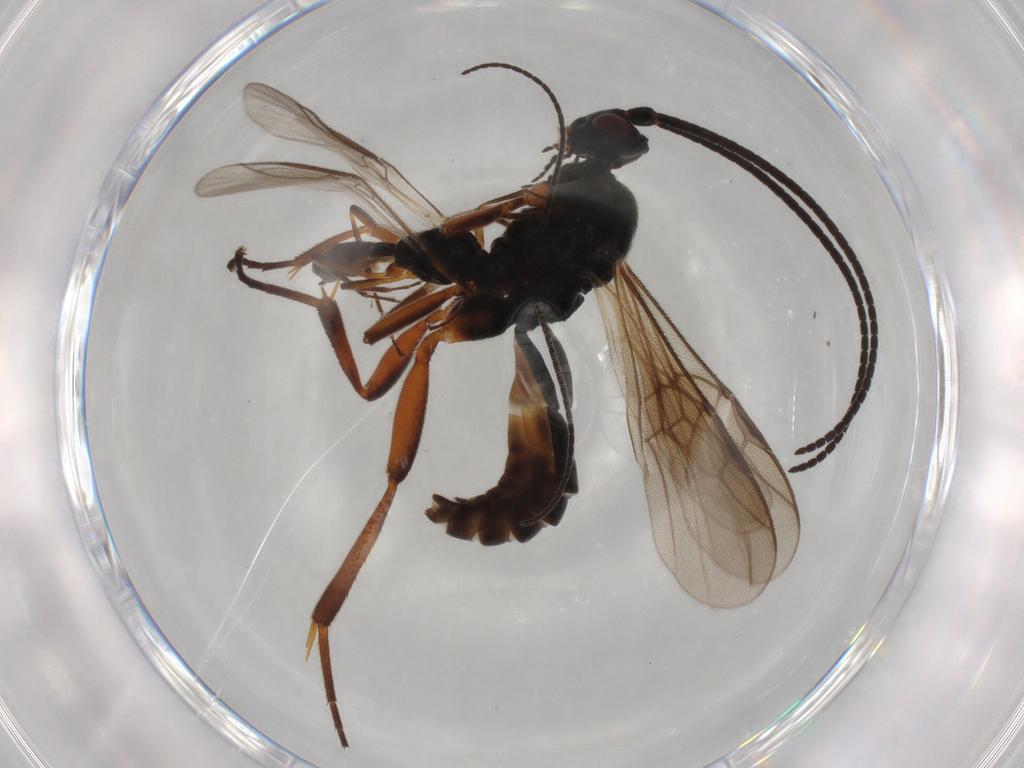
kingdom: Animalia
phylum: Arthropoda
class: Insecta
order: Hymenoptera
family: Braconidae
